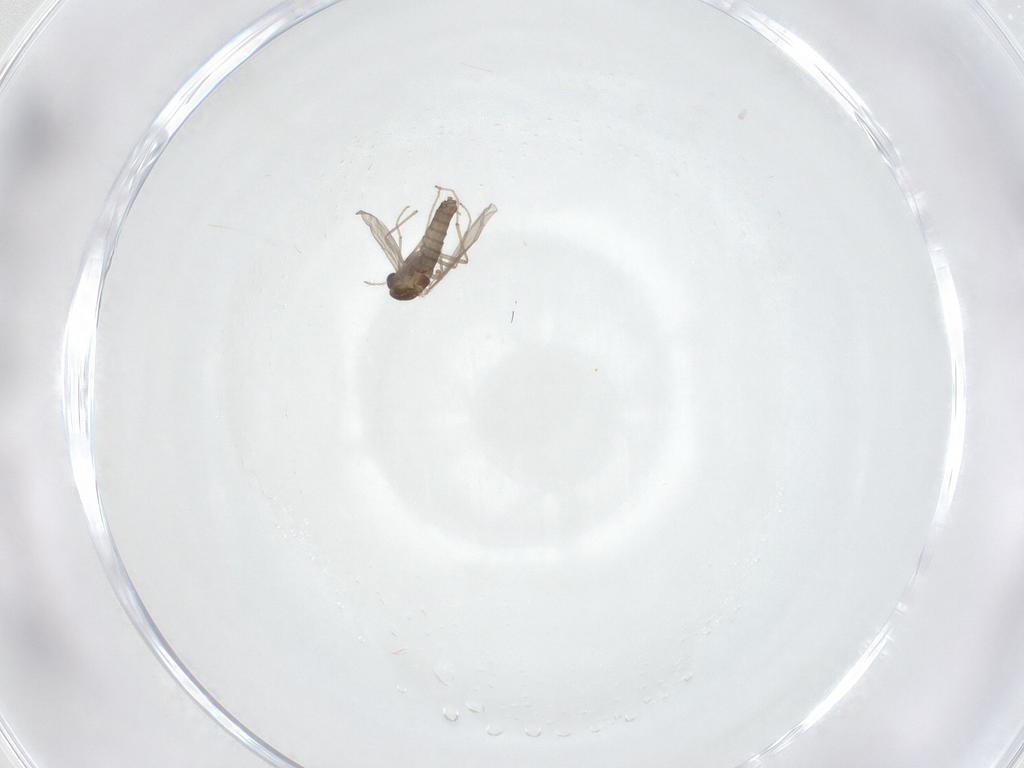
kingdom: Animalia
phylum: Arthropoda
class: Insecta
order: Diptera
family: Chironomidae
